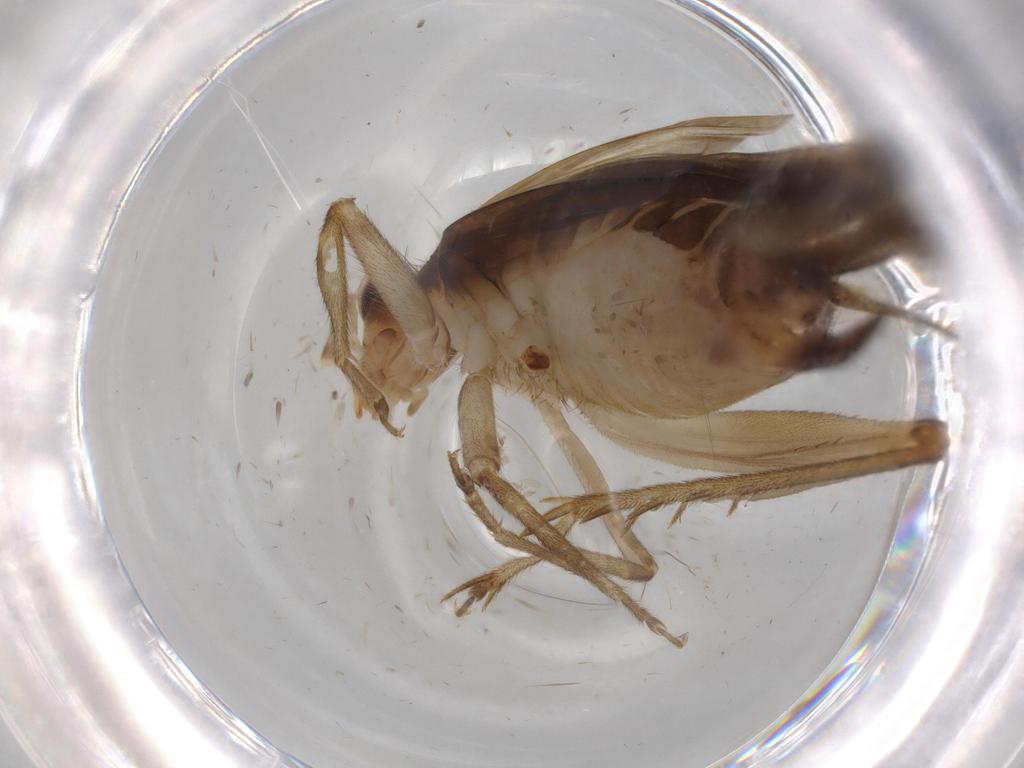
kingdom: Animalia
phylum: Arthropoda
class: Insecta
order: Orthoptera
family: Trigonidiidae
